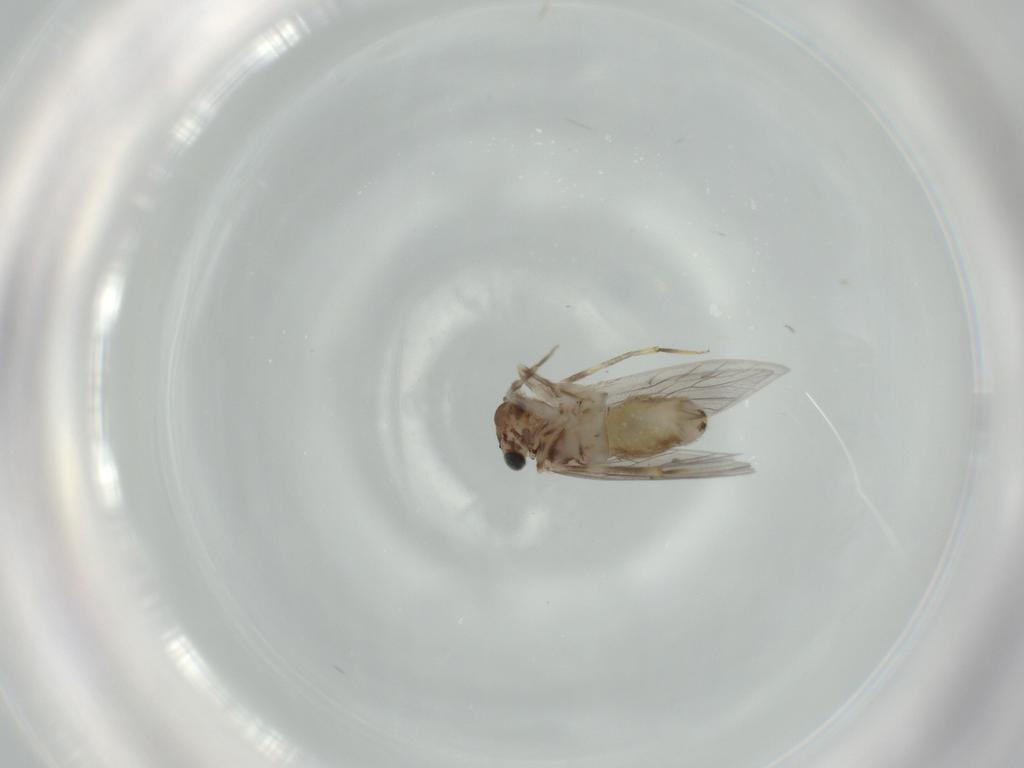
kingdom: Animalia
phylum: Arthropoda
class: Insecta
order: Psocodea
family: Lepidopsocidae
